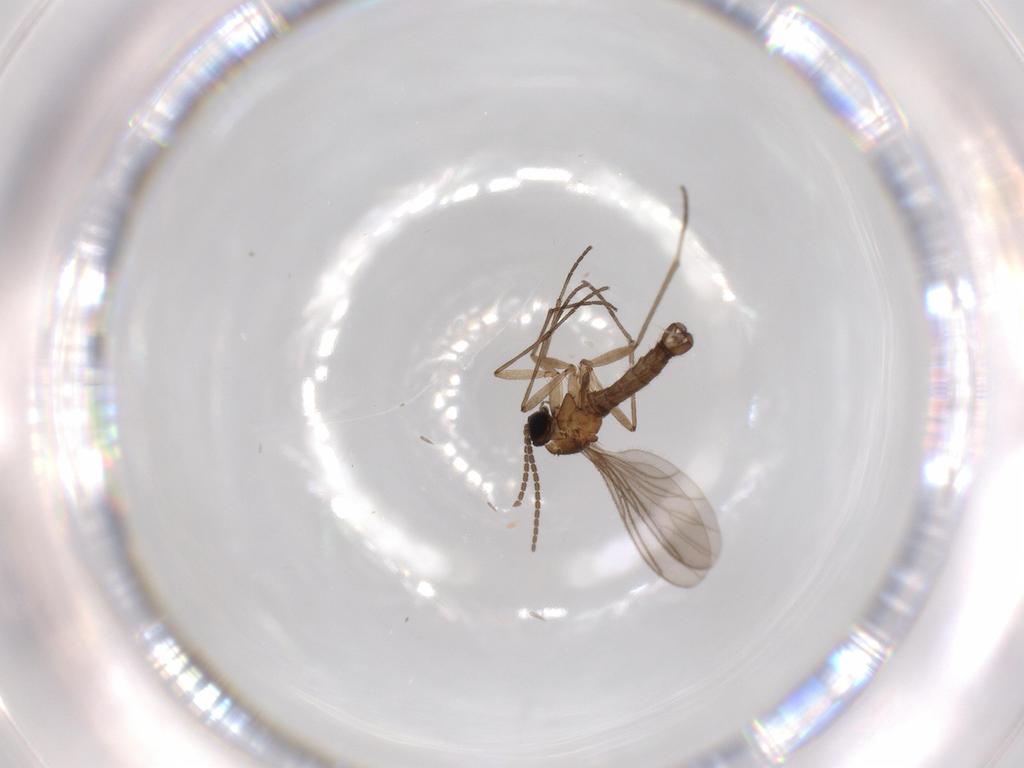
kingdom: Animalia
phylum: Arthropoda
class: Insecta
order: Diptera
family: Sciaridae
